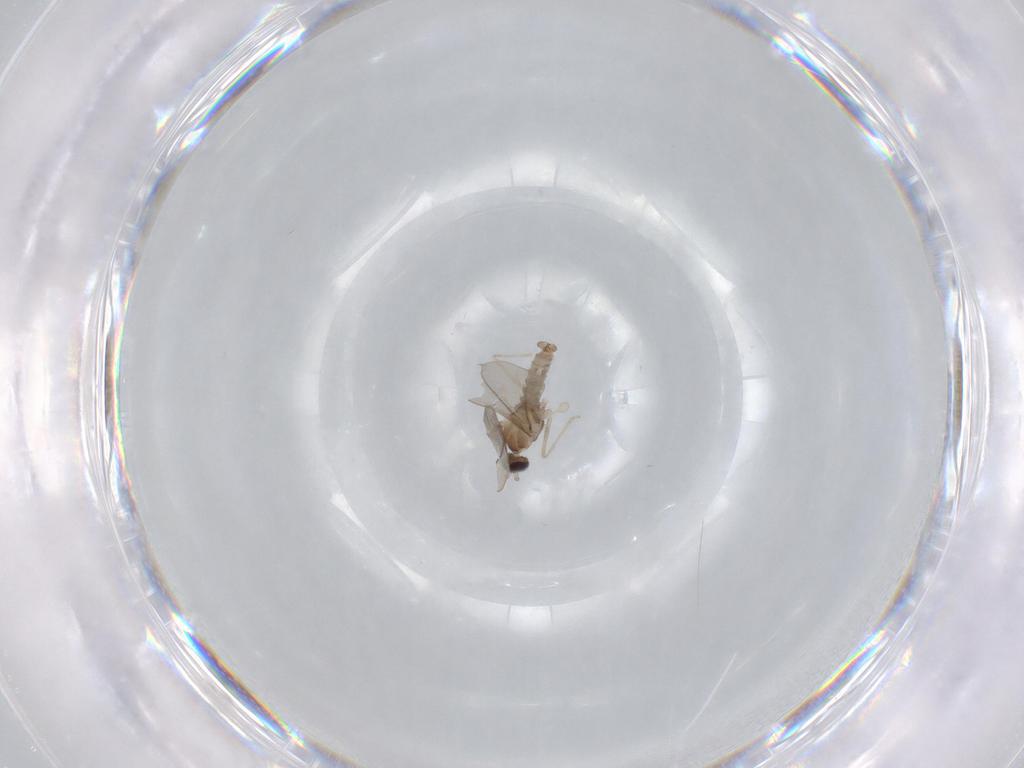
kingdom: Animalia
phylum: Arthropoda
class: Insecta
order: Diptera
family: Cecidomyiidae
